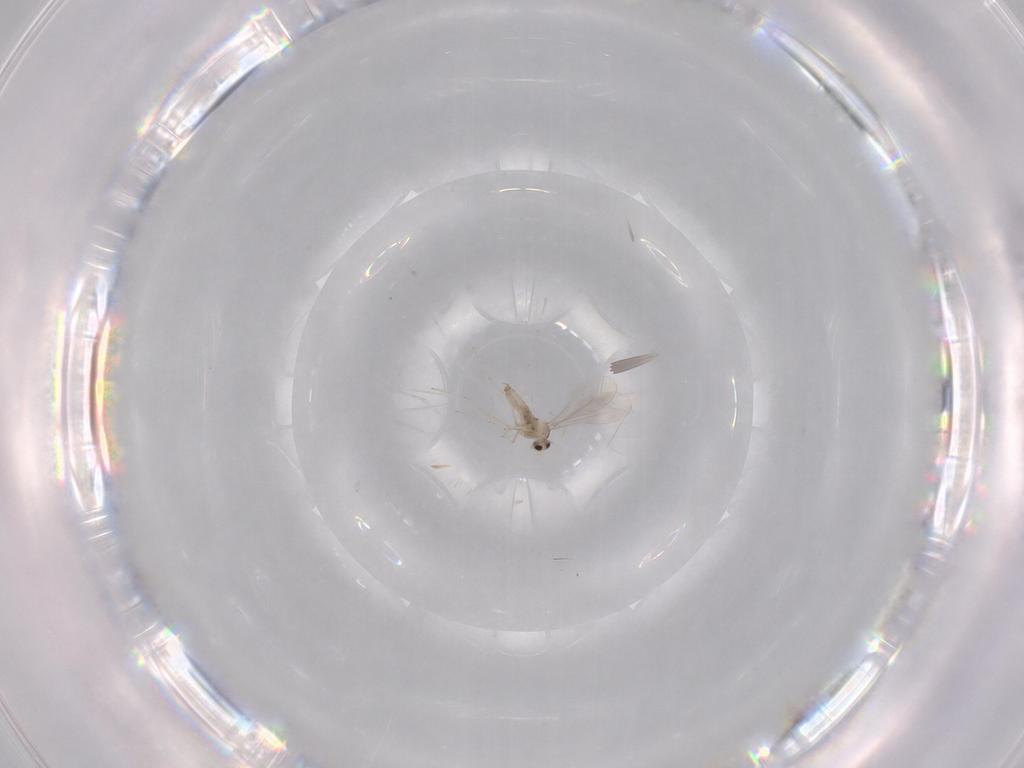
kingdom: Animalia
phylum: Arthropoda
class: Insecta
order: Diptera
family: Cecidomyiidae
